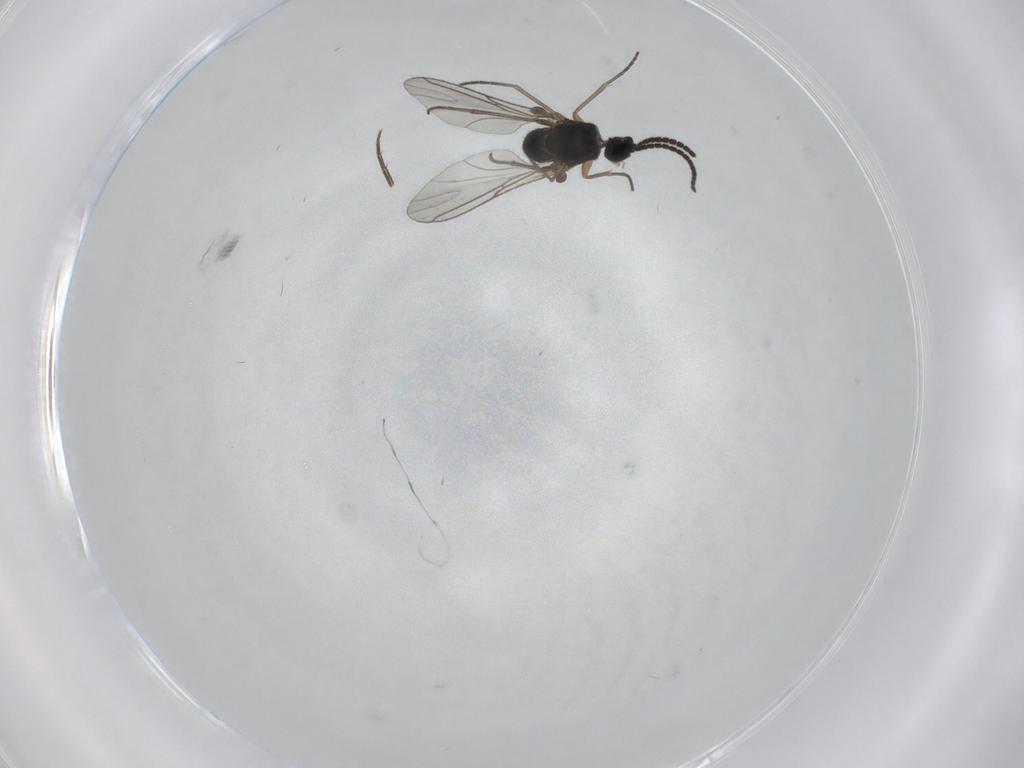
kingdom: Animalia
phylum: Arthropoda
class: Insecta
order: Diptera
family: Sciaridae
